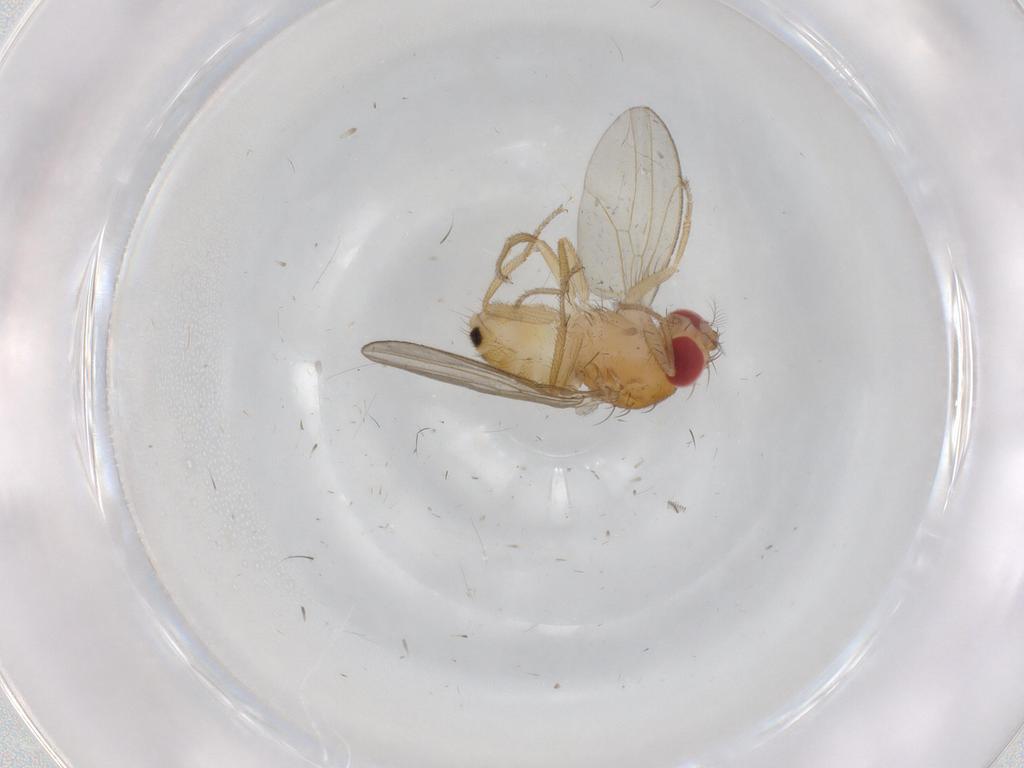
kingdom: Animalia
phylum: Arthropoda
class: Insecta
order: Diptera
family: Drosophilidae
